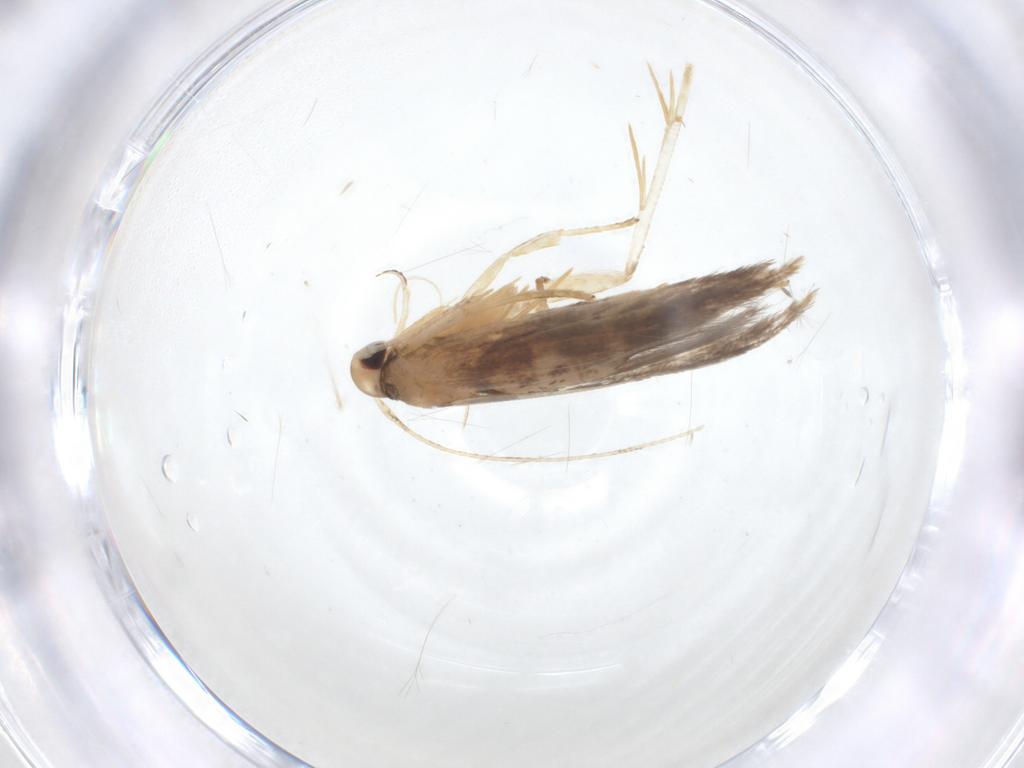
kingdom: Animalia
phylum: Arthropoda
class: Insecta
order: Lepidoptera
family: Cosmopterigidae
